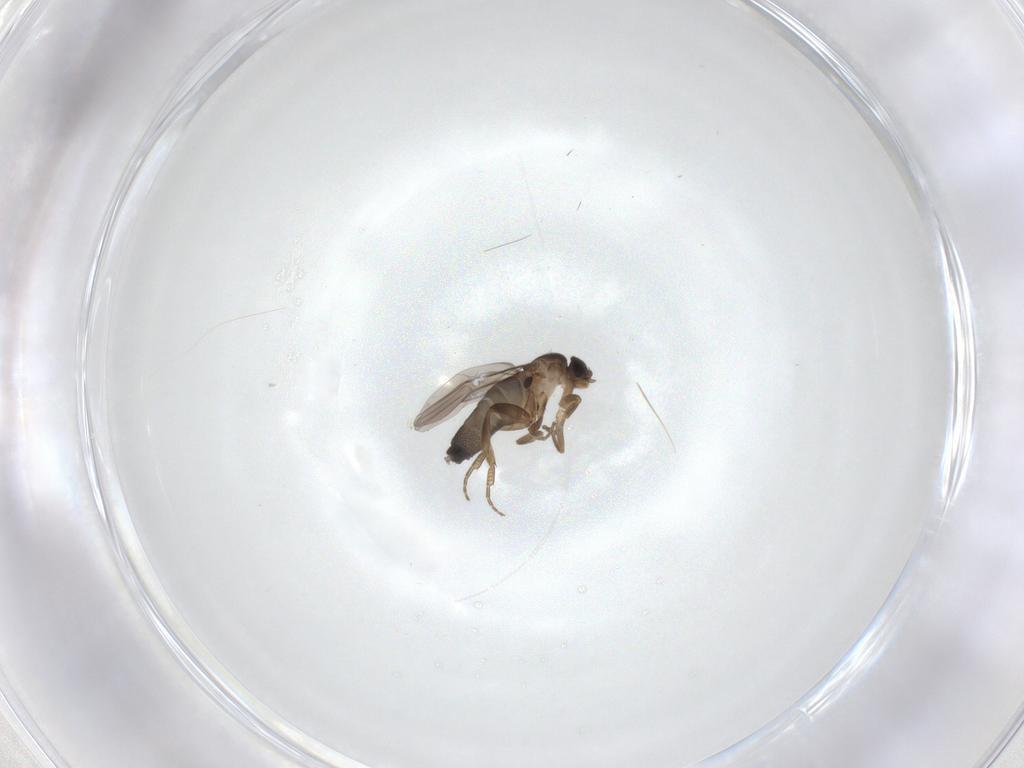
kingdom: Animalia
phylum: Arthropoda
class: Insecta
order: Diptera
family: Phoridae
